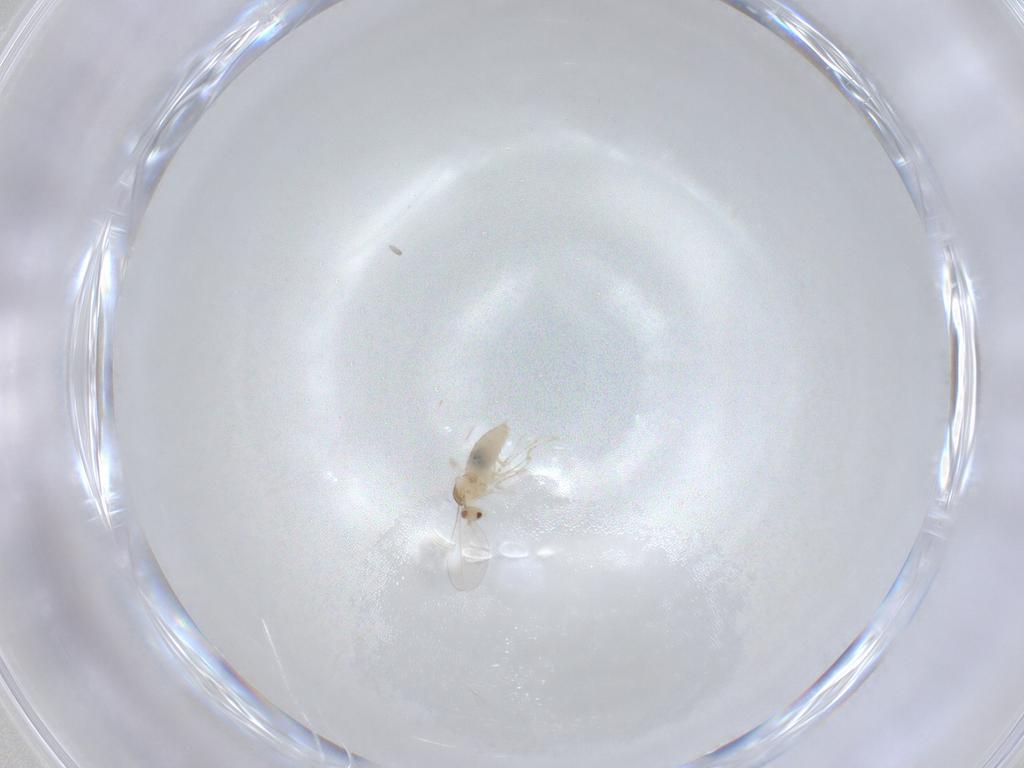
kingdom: Animalia
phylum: Arthropoda
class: Insecta
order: Diptera
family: Cecidomyiidae
